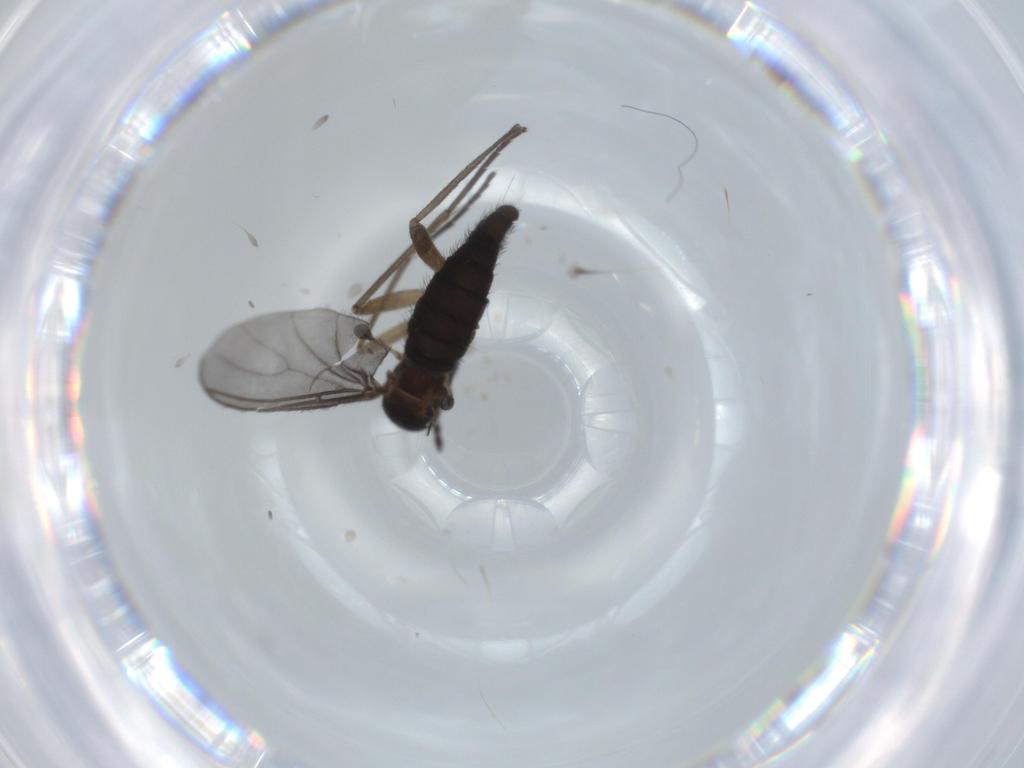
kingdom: Animalia
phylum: Arthropoda
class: Insecta
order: Diptera
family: Sciaridae
